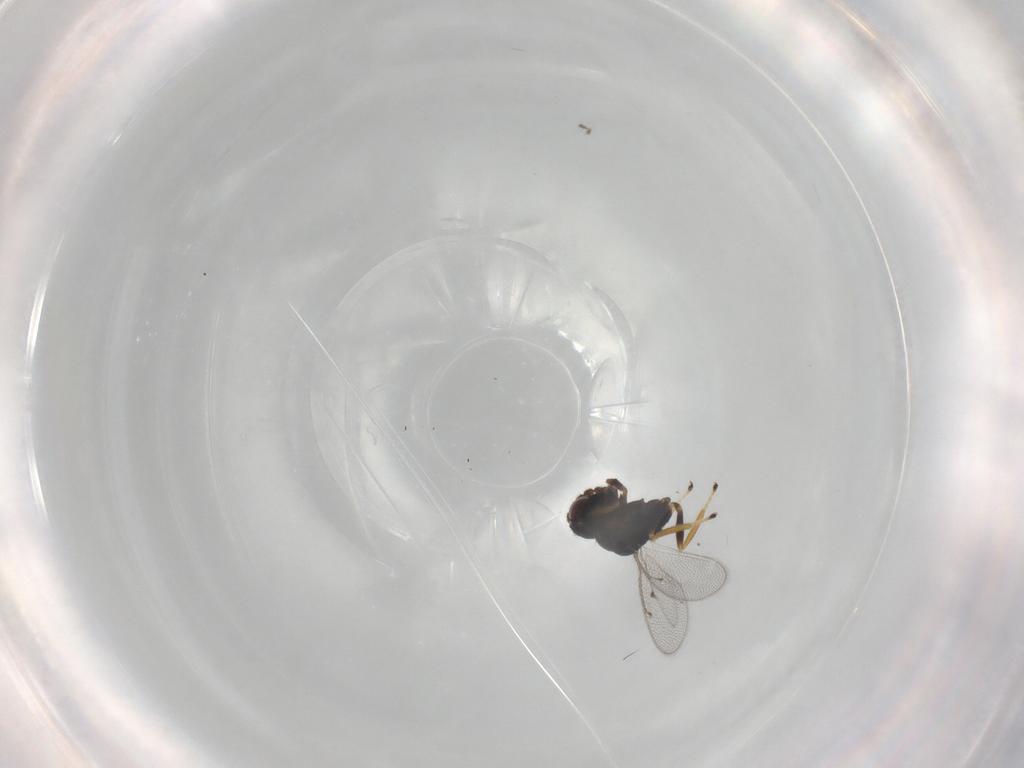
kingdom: Animalia
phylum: Arthropoda
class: Insecta
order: Hymenoptera
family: Eulophidae
